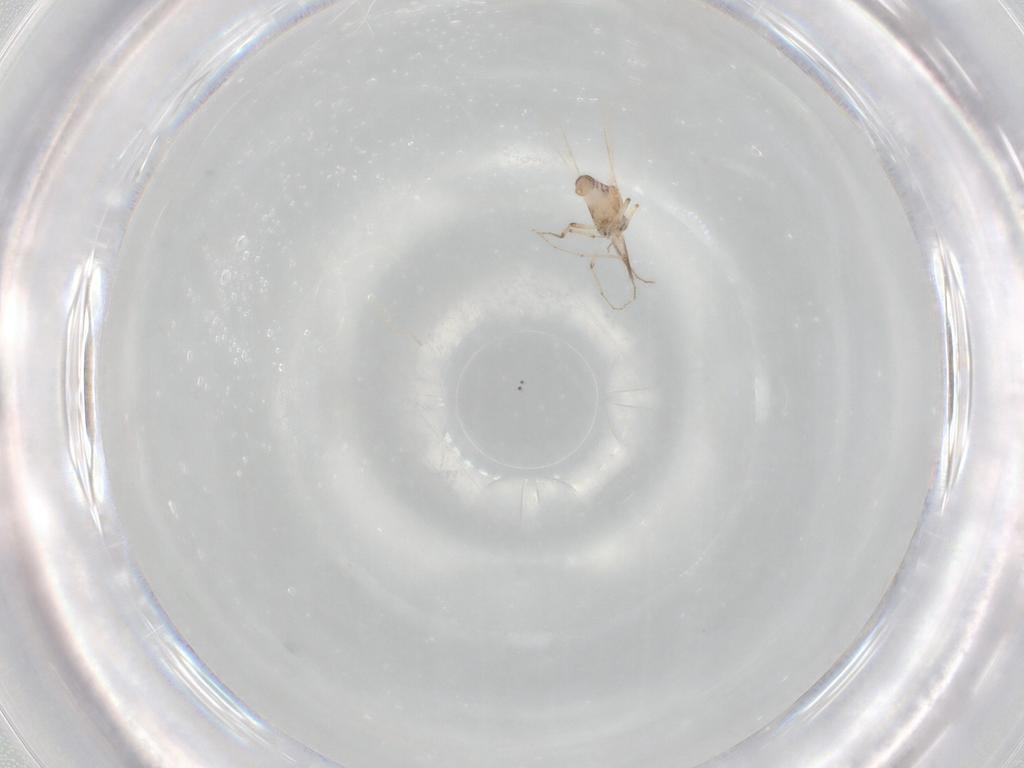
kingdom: Animalia
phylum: Arthropoda
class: Insecta
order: Diptera
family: Ceratopogonidae
